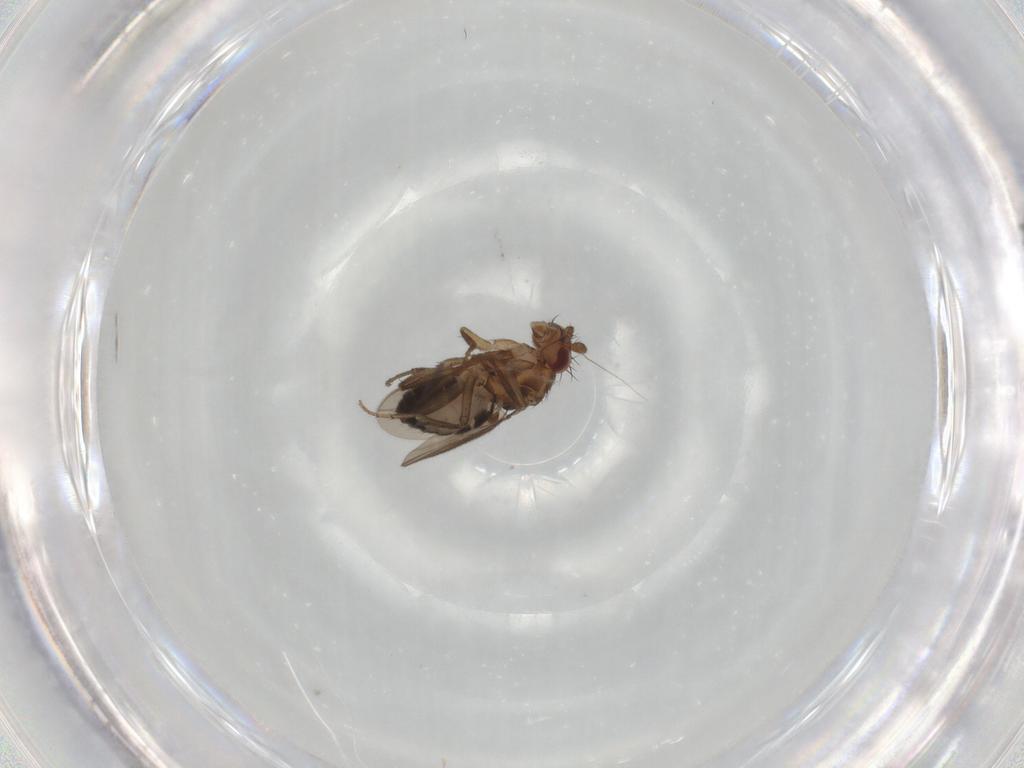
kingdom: Animalia
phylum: Arthropoda
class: Insecta
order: Diptera
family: Sphaeroceridae
